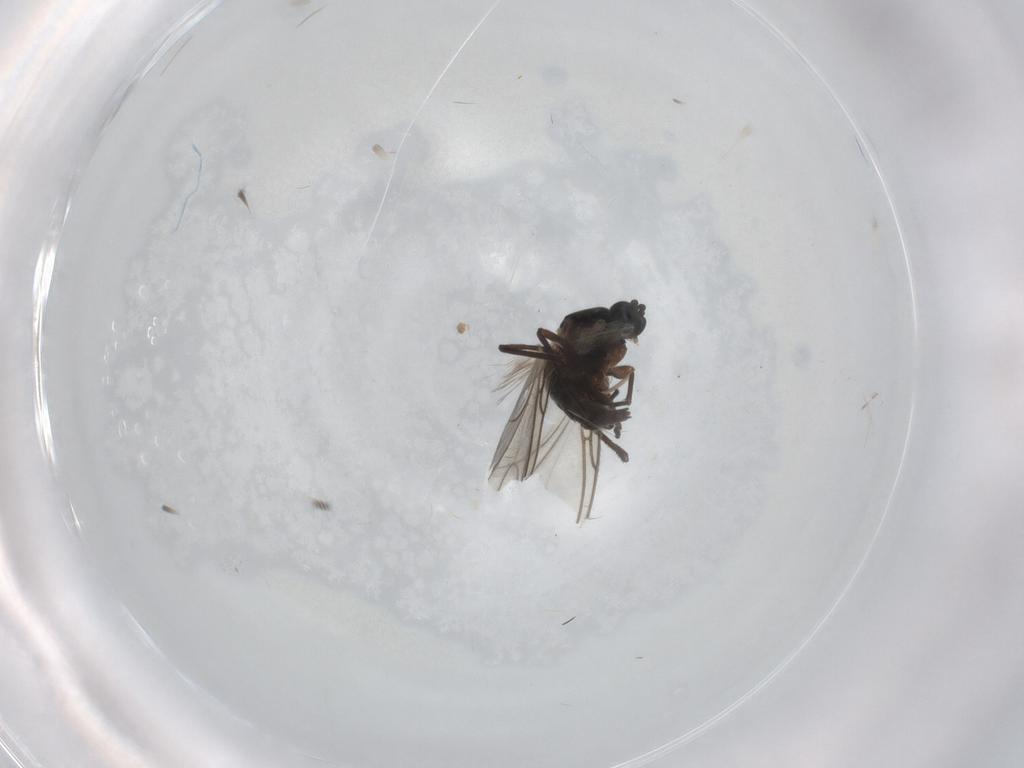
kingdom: Animalia
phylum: Arthropoda
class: Insecta
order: Diptera
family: Sciaridae
